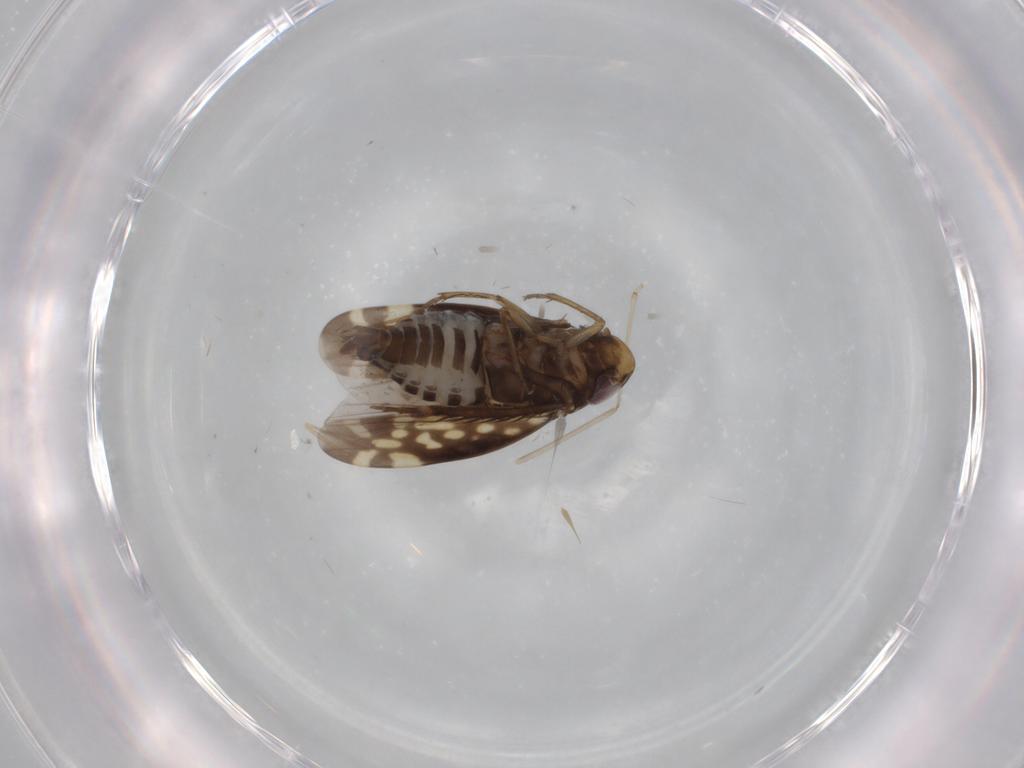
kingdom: Animalia
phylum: Arthropoda
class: Insecta
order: Hemiptera
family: Cicadellidae
